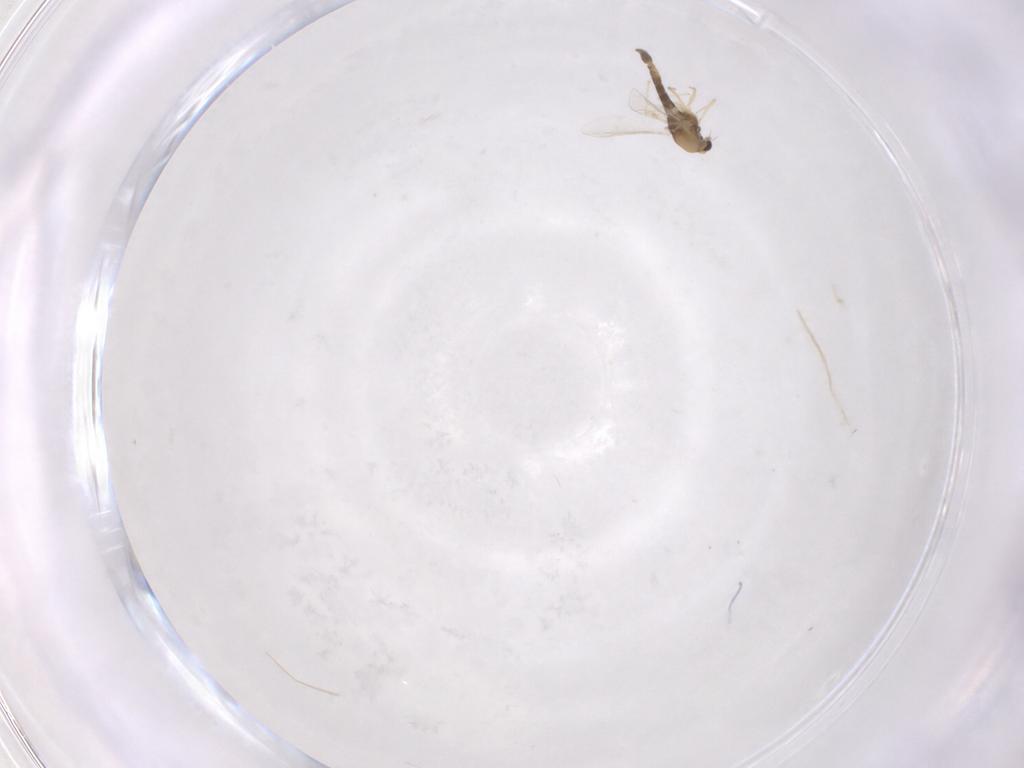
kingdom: Animalia
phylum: Arthropoda
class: Insecta
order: Diptera
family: Chironomidae
